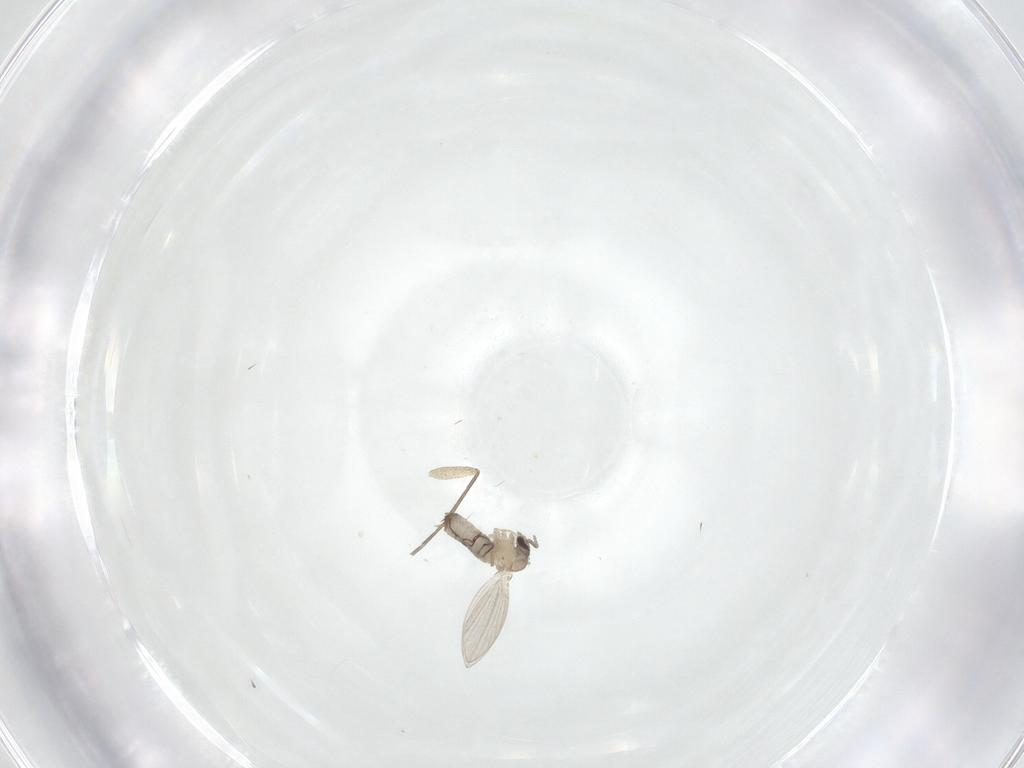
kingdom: Animalia
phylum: Arthropoda
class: Insecta
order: Diptera
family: Psychodidae
